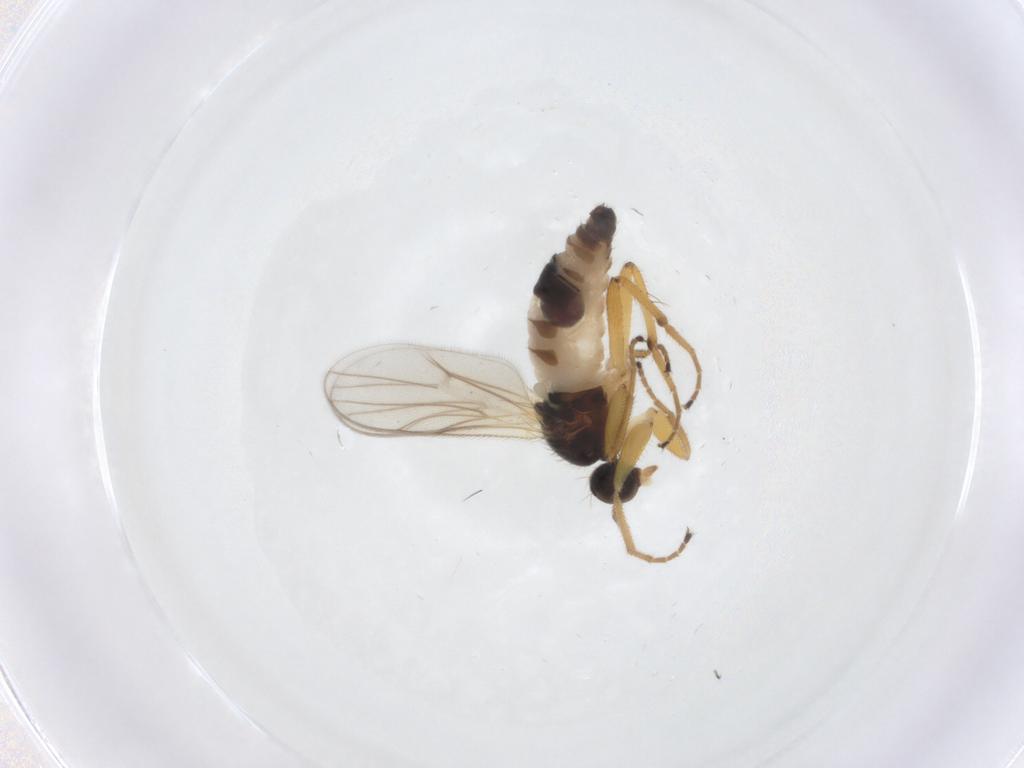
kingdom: Animalia
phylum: Arthropoda
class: Insecta
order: Diptera
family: Hybotidae
